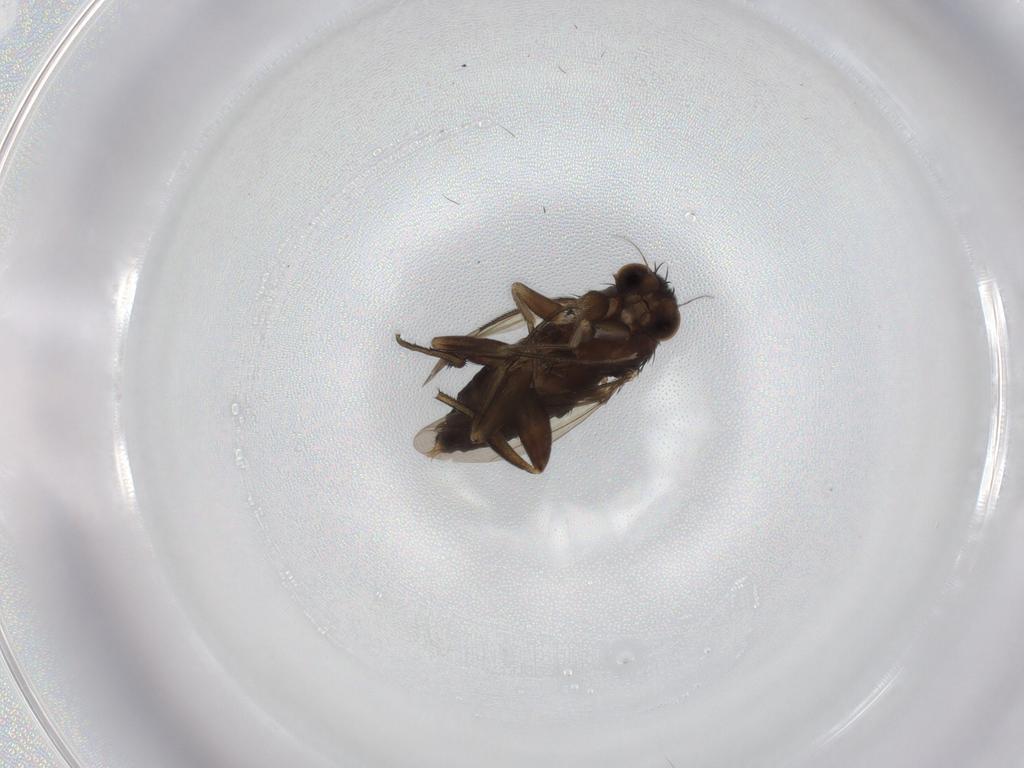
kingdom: Animalia
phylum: Arthropoda
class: Insecta
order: Diptera
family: Phoridae
